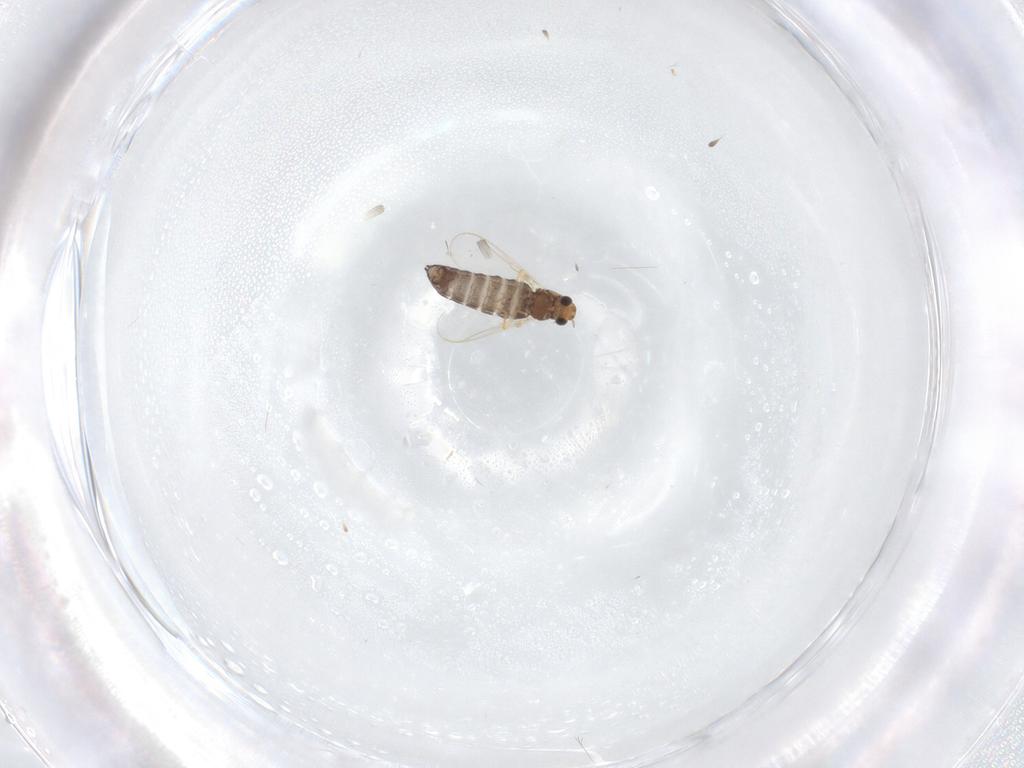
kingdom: Animalia
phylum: Arthropoda
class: Insecta
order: Diptera
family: Chironomidae
